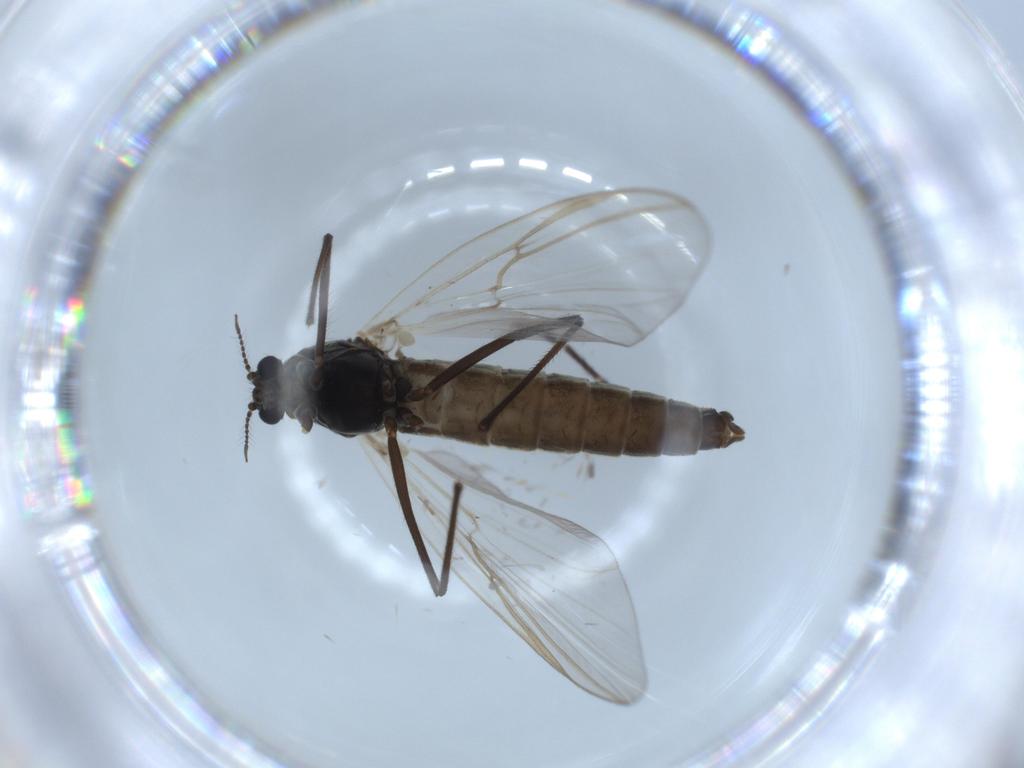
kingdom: Animalia
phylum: Arthropoda
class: Insecta
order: Diptera
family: Chironomidae
